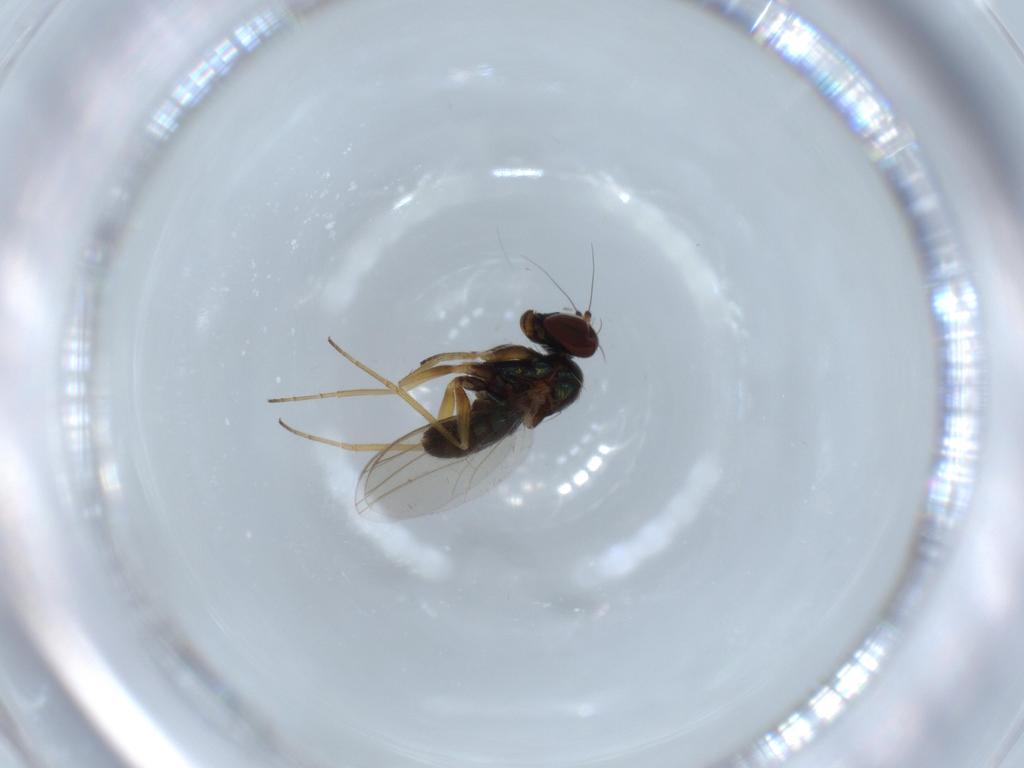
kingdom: Animalia
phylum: Arthropoda
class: Insecta
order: Diptera
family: Dolichopodidae
